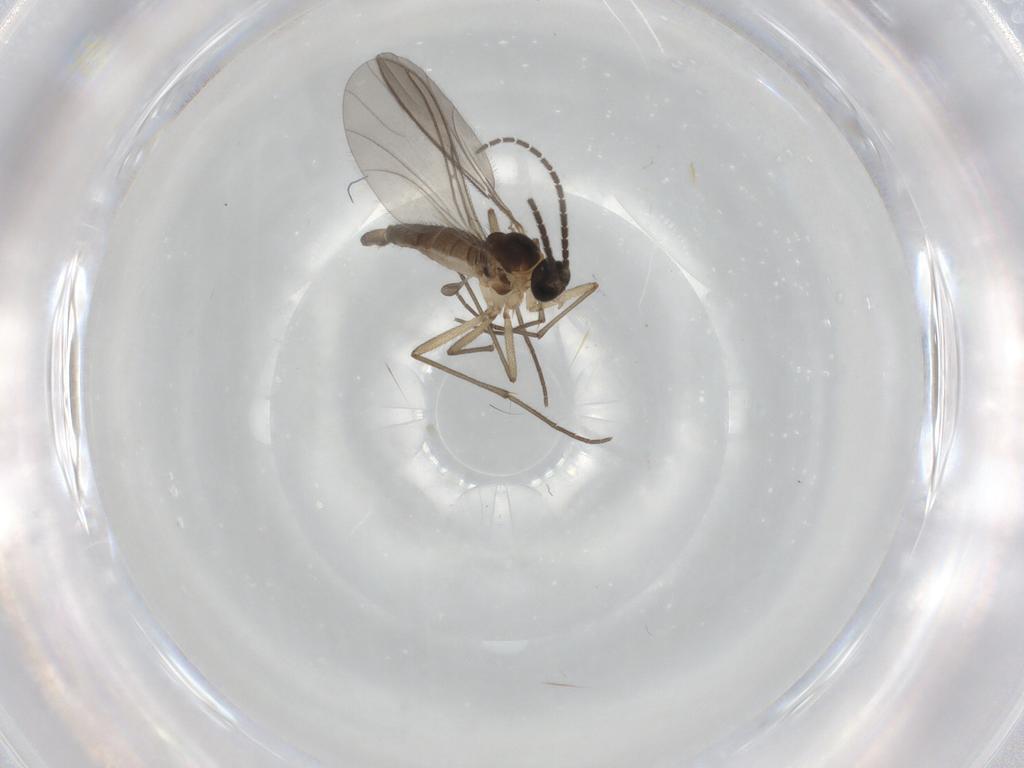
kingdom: Animalia
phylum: Arthropoda
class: Insecta
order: Diptera
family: Sciaridae
